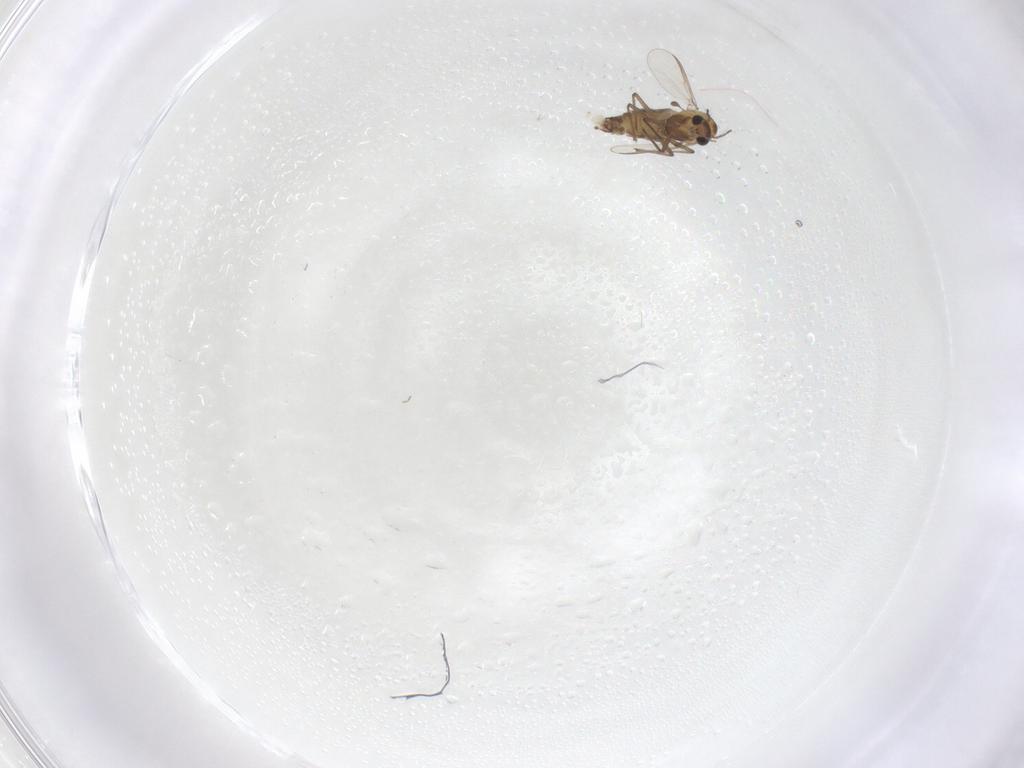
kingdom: Animalia
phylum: Arthropoda
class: Insecta
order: Diptera
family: Chironomidae
